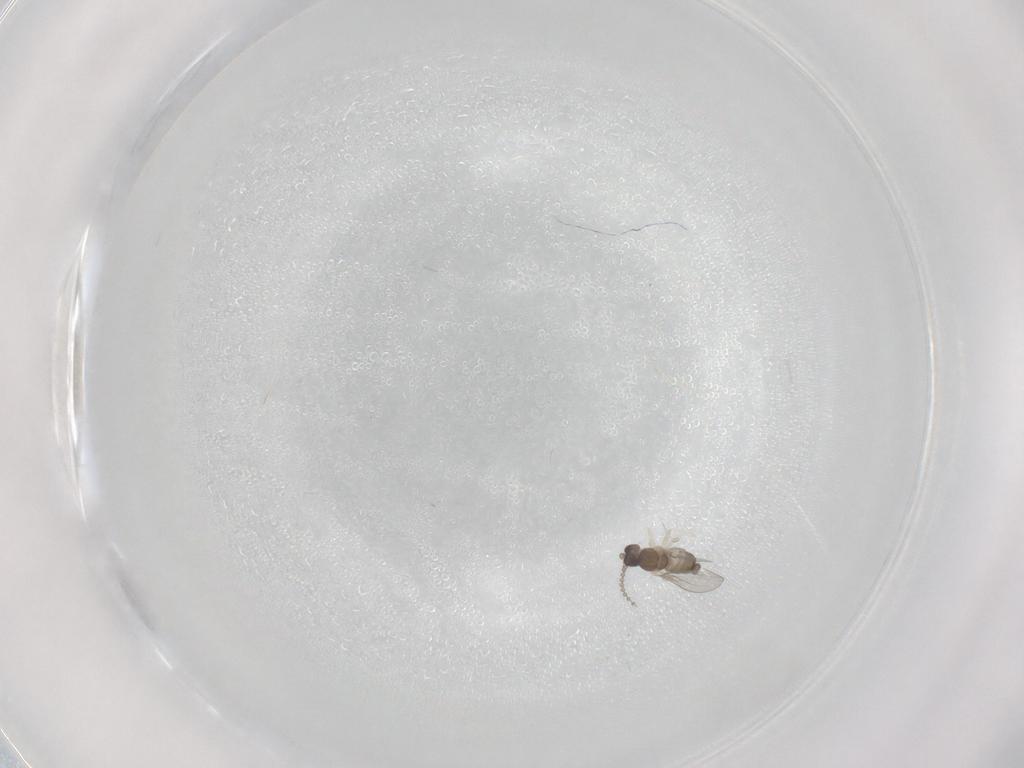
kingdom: Animalia
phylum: Arthropoda
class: Insecta
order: Diptera
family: Cecidomyiidae
